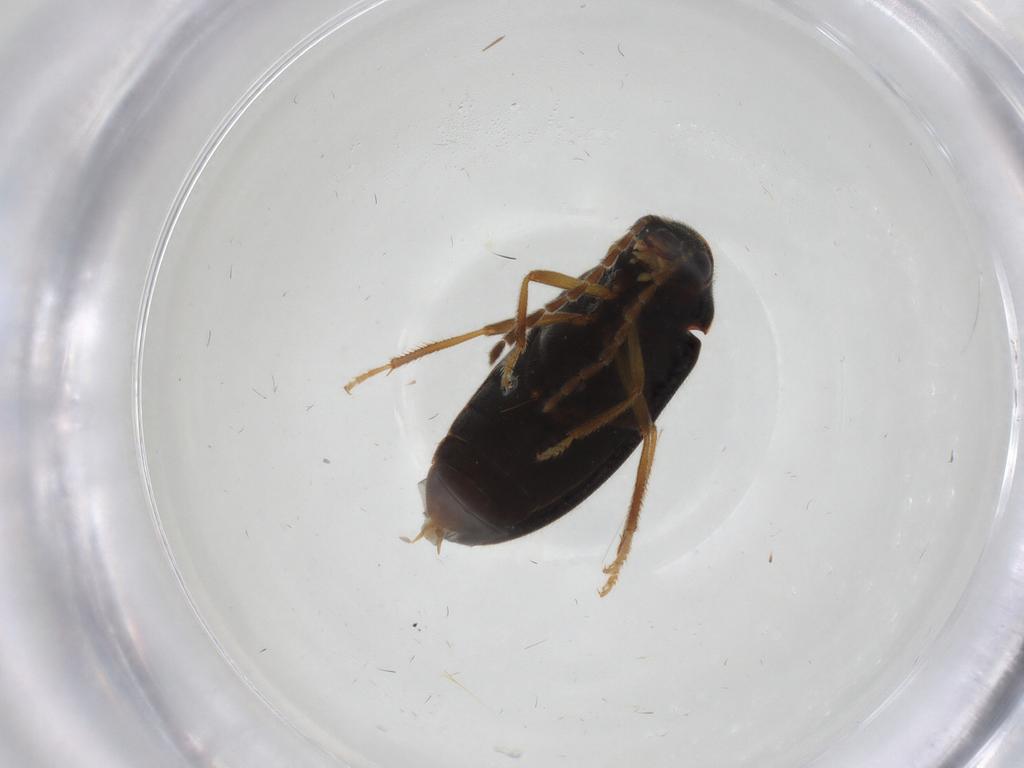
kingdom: Animalia
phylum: Arthropoda
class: Insecta
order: Coleoptera
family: Ptilodactylidae
